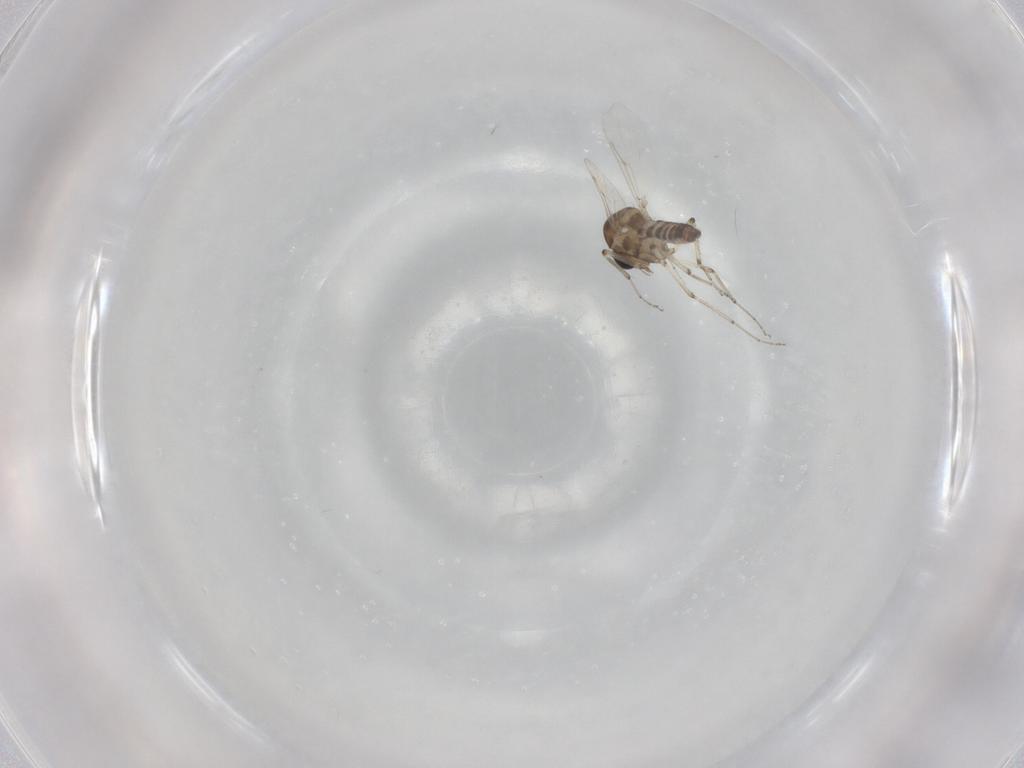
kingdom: Animalia
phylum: Arthropoda
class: Insecta
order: Diptera
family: Ceratopogonidae
